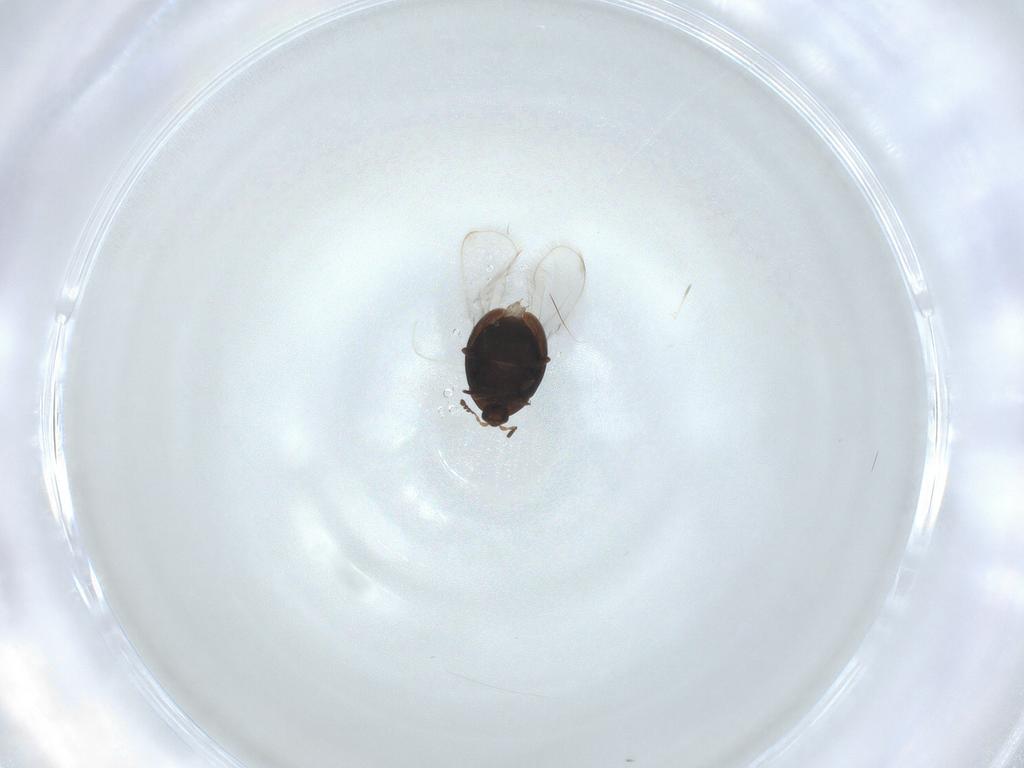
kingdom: Animalia
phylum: Arthropoda
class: Insecta
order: Coleoptera
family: Corylophidae
